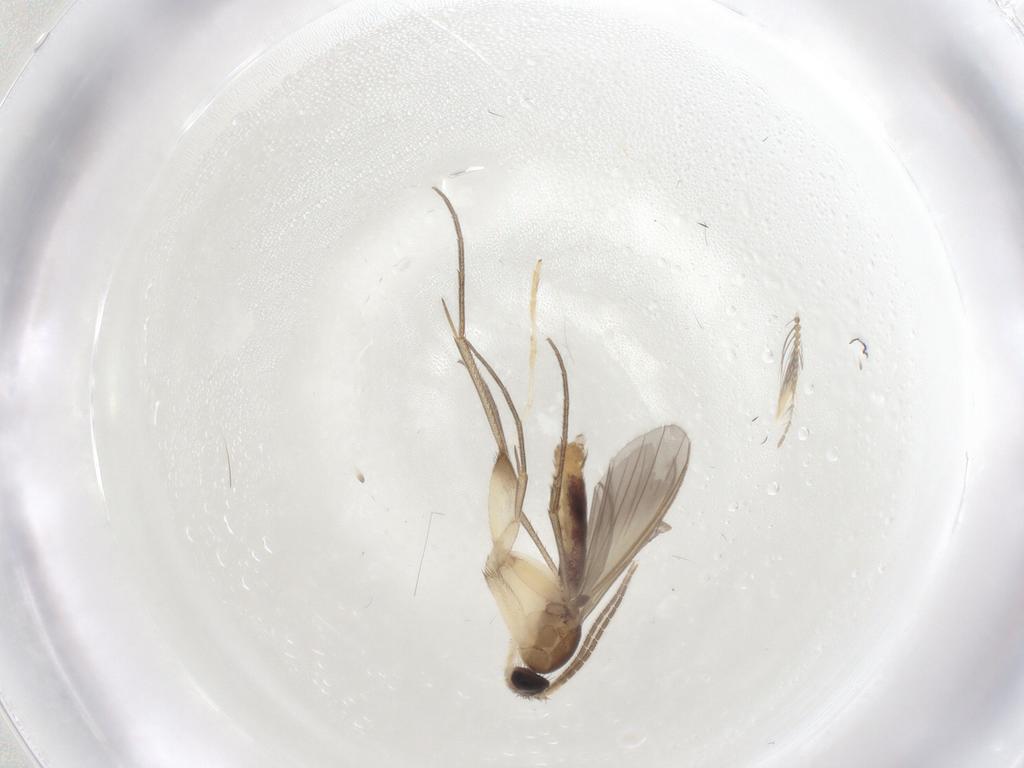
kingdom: Animalia
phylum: Arthropoda
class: Insecta
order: Diptera
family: Mycetophilidae
